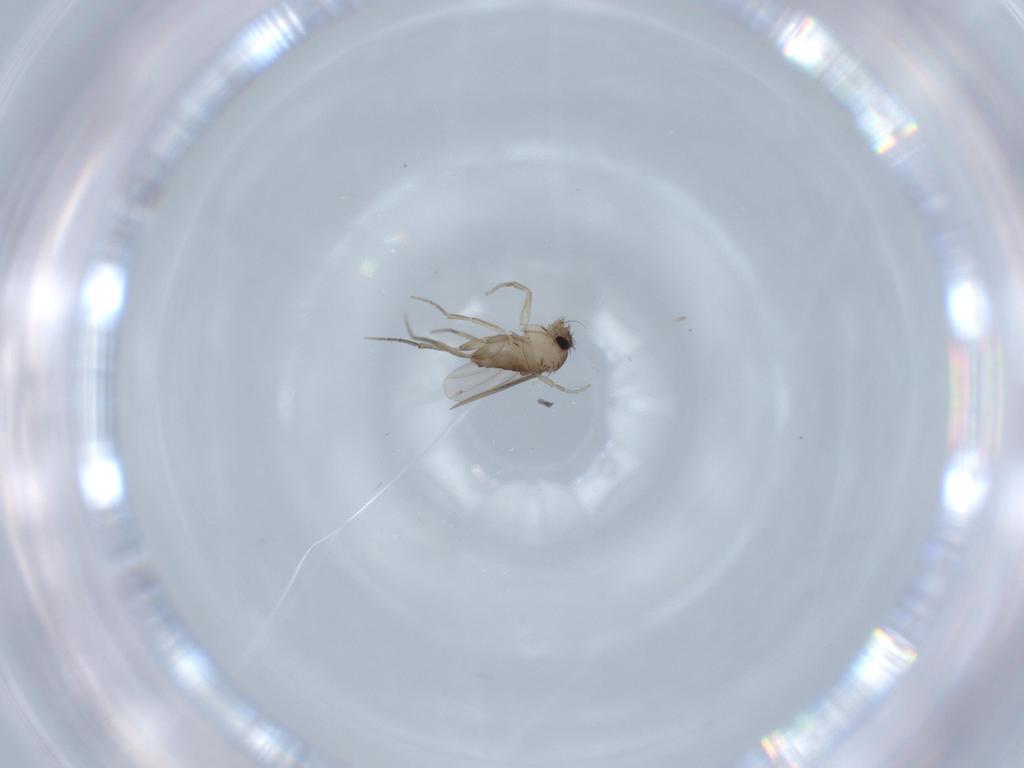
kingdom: Animalia
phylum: Arthropoda
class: Insecta
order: Diptera
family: Phoridae
